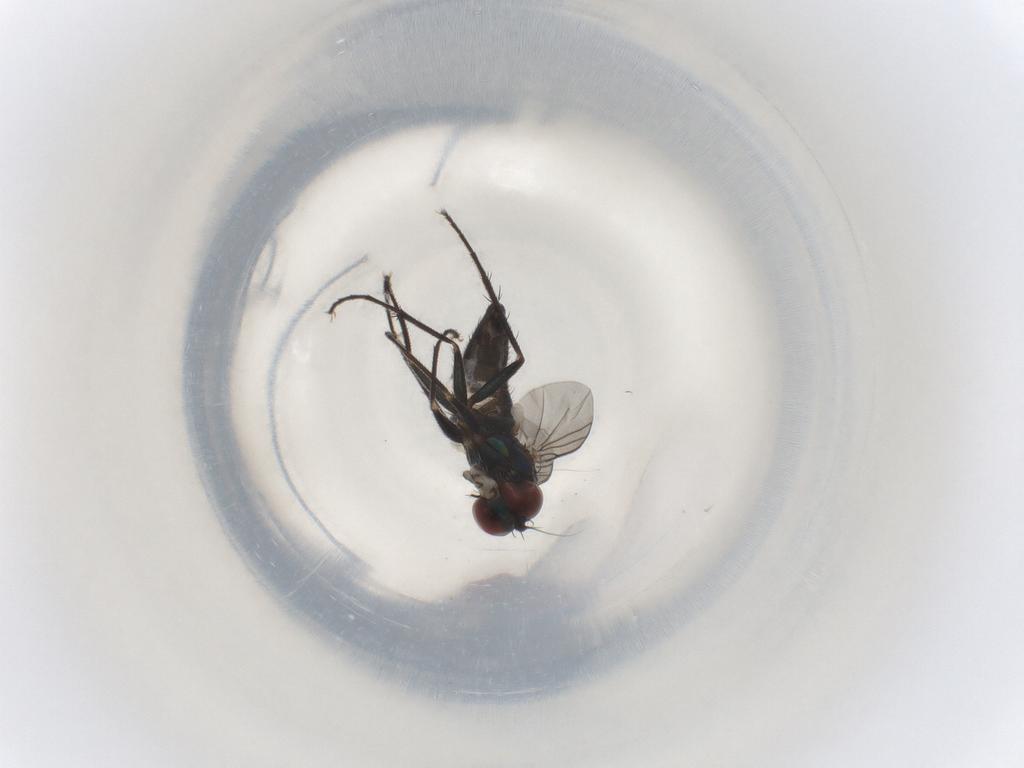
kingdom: Animalia
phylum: Arthropoda
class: Insecta
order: Diptera
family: Dolichopodidae
